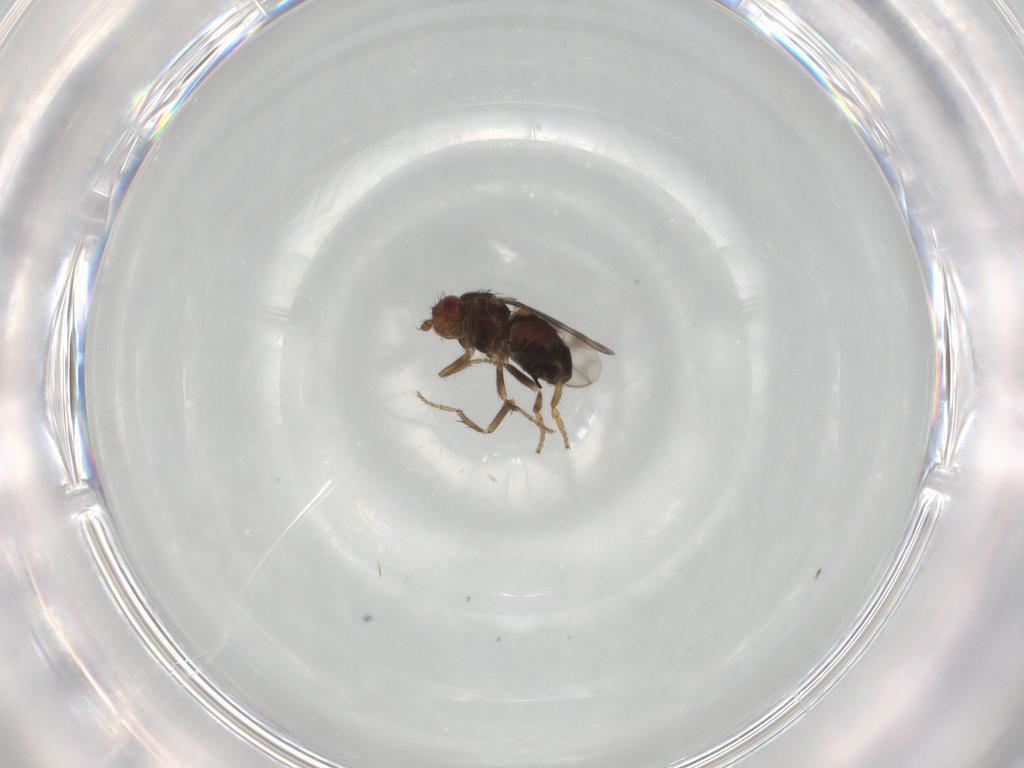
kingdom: Animalia
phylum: Arthropoda
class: Insecta
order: Diptera
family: Sphaeroceridae
